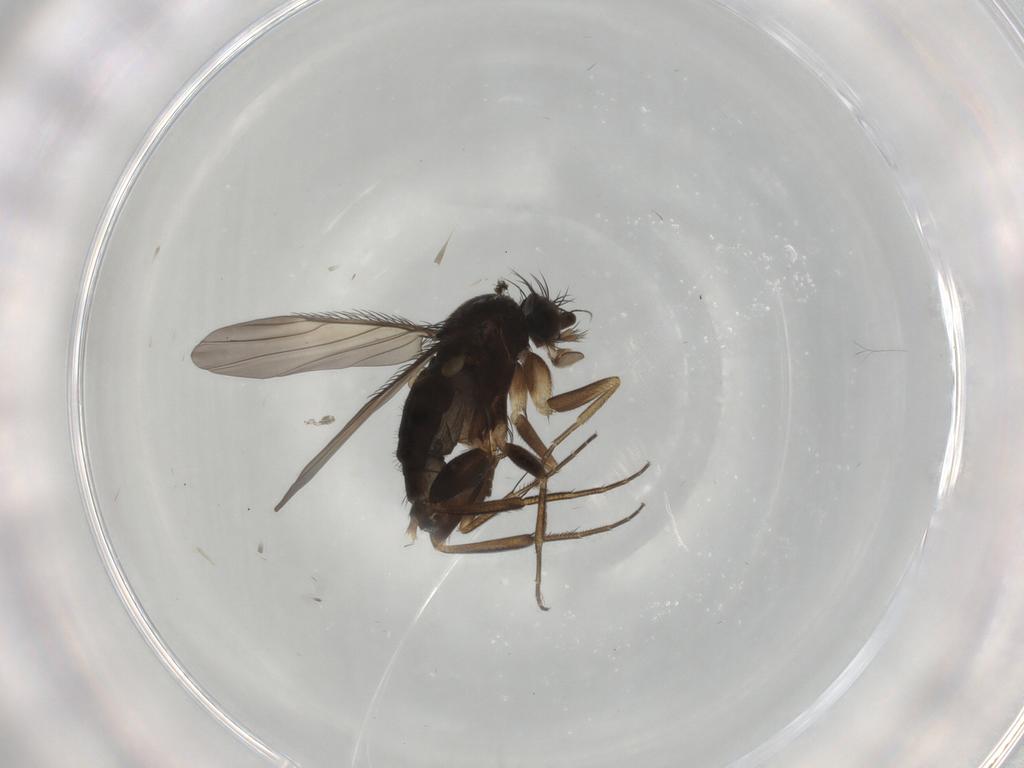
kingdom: Animalia
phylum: Arthropoda
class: Insecta
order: Diptera
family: Phoridae
